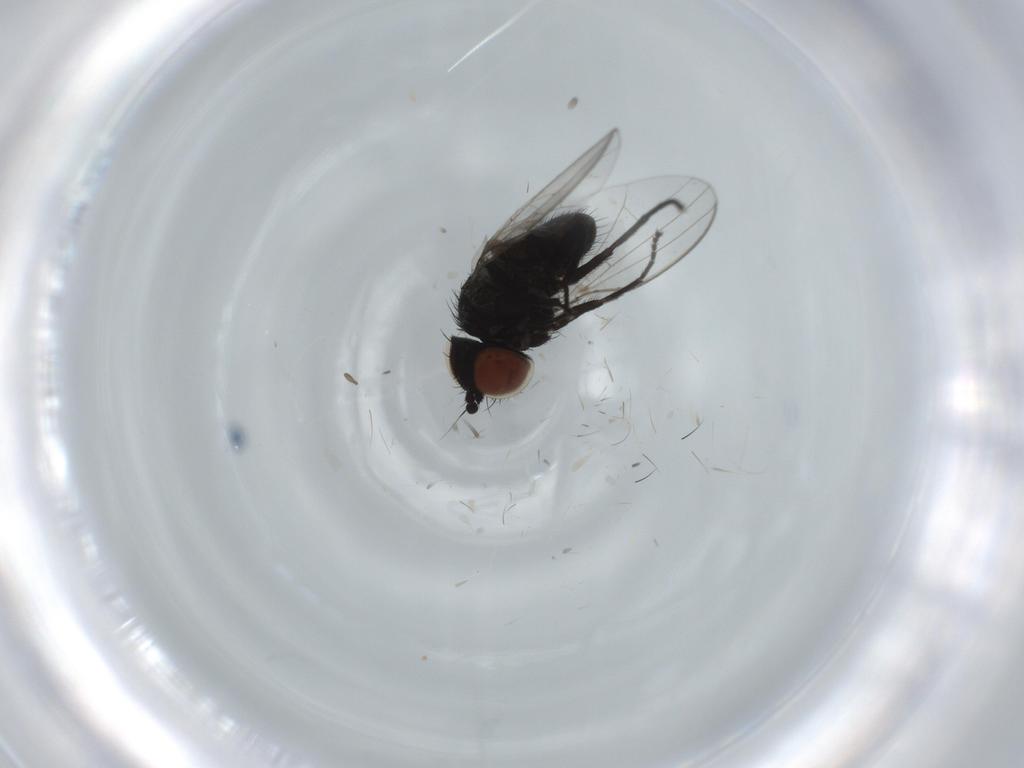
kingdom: Animalia
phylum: Arthropoda
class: Insecta
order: Diptera
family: Milichiidae
